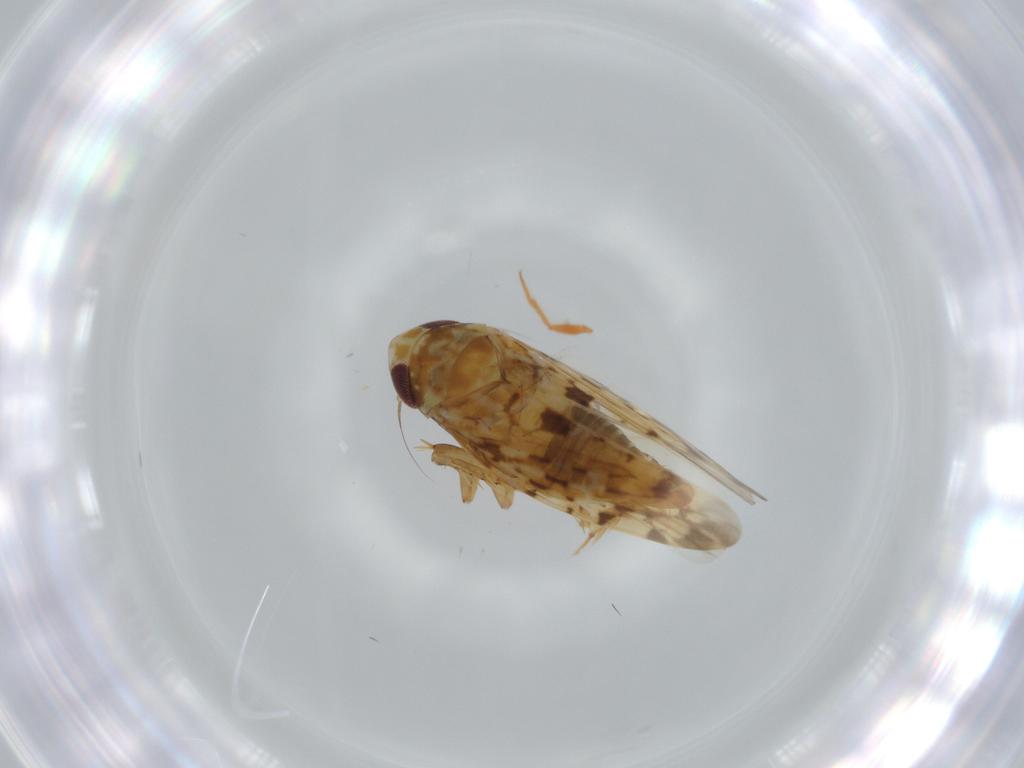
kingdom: Animalia
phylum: Arthropoda
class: Insecta
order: Hemiptera
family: Cicadellidae
